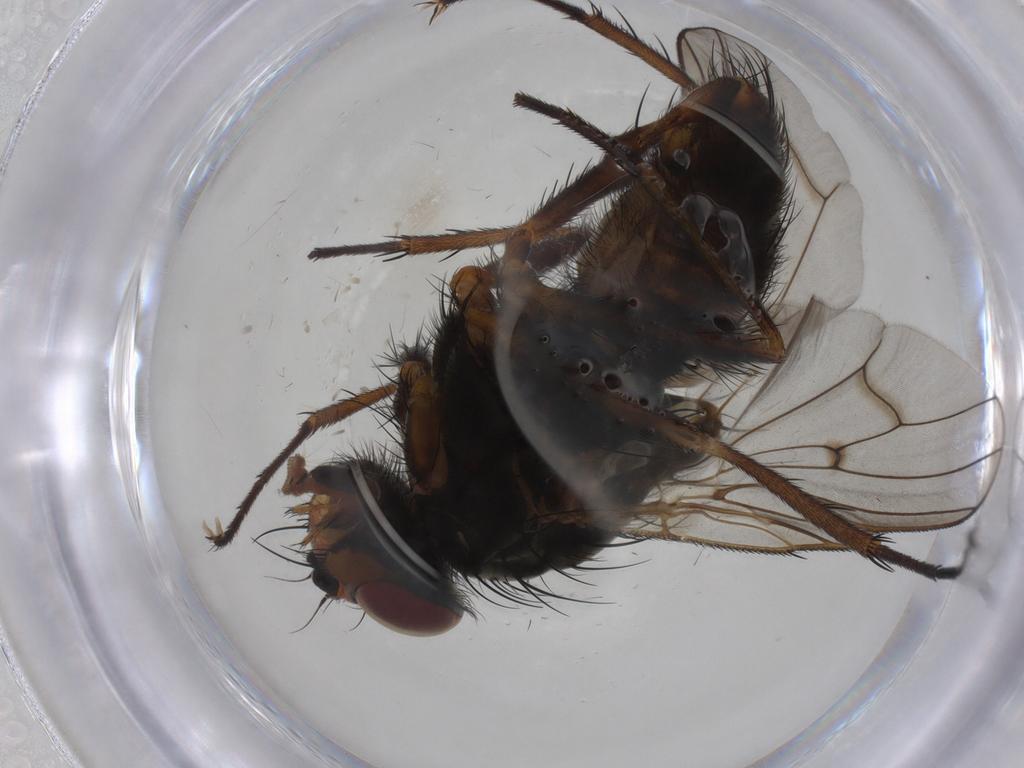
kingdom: Animalia
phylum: Arthropoda
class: Insecta
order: Diptera
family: Anthomyiidae
